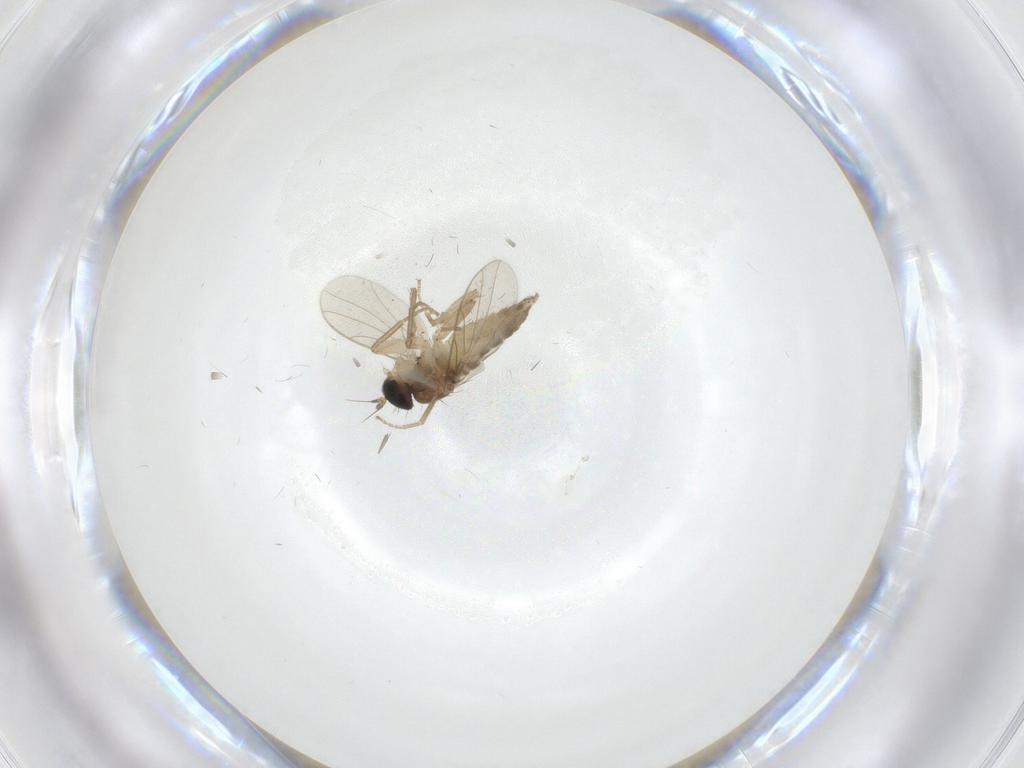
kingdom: Animalia
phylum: Arthropoda
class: Insecta
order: Diptera
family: Hybotidae
